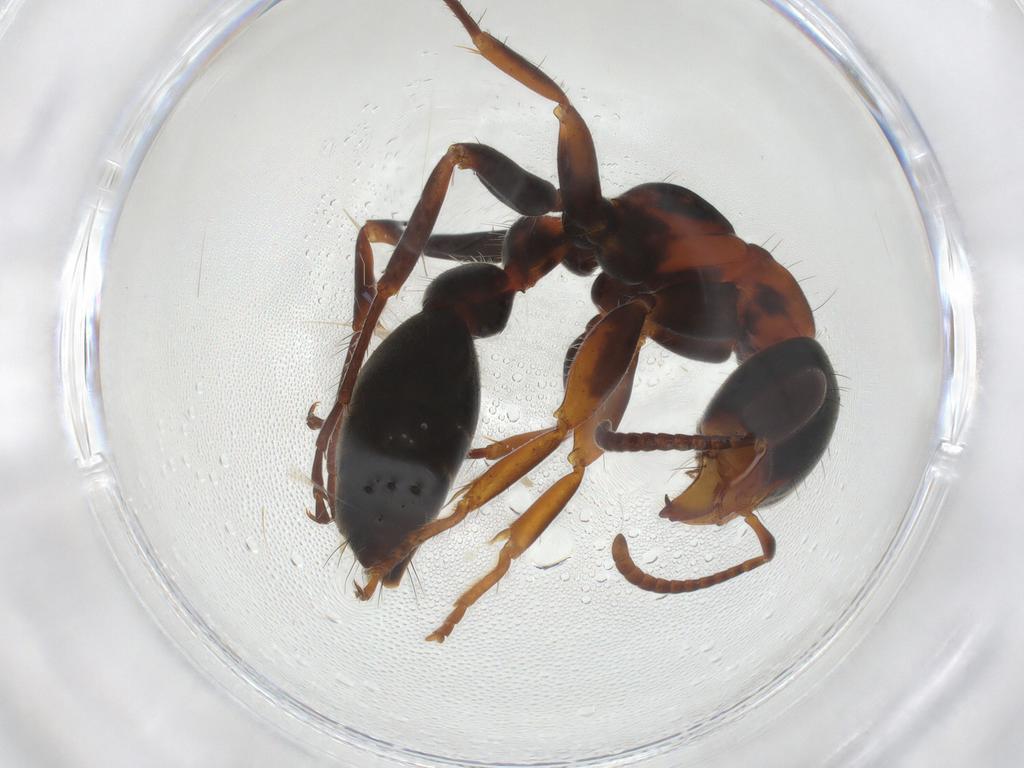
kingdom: Animalia
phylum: Arthropoda
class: Insecta
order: Hymenoptera
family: Formicidae
